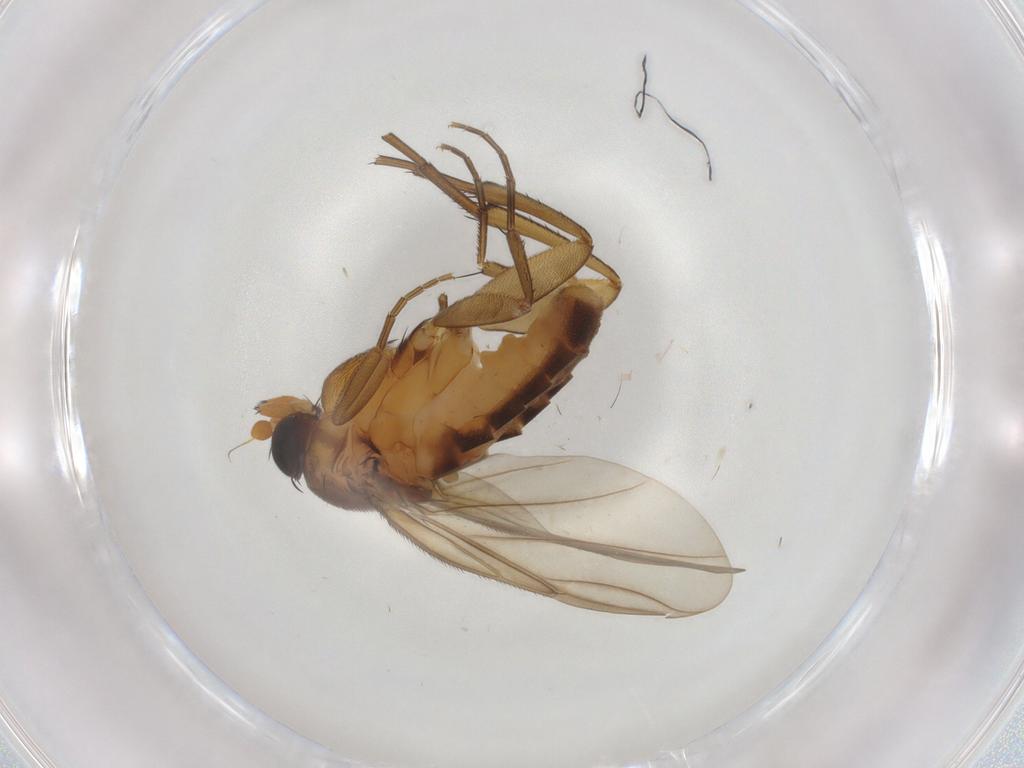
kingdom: Animalia
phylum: Arthropoda
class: Insecta
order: Diptera
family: Phoridae
